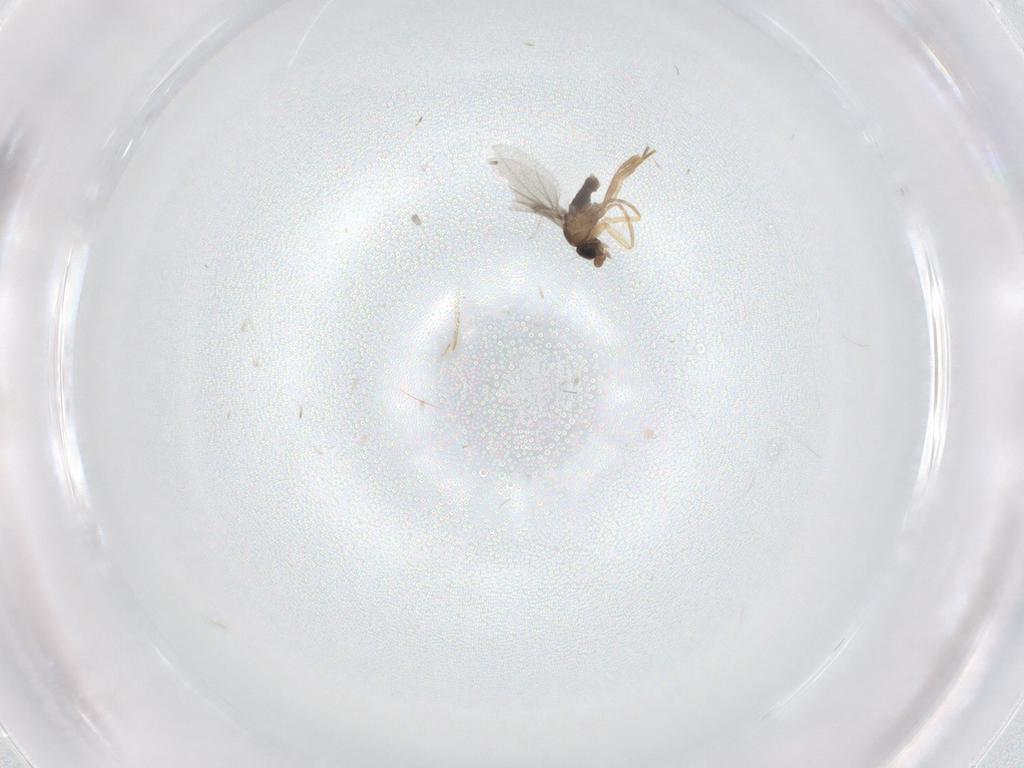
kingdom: Animalia
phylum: Arthropoda
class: Insecta
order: Diptera
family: Phoridae
